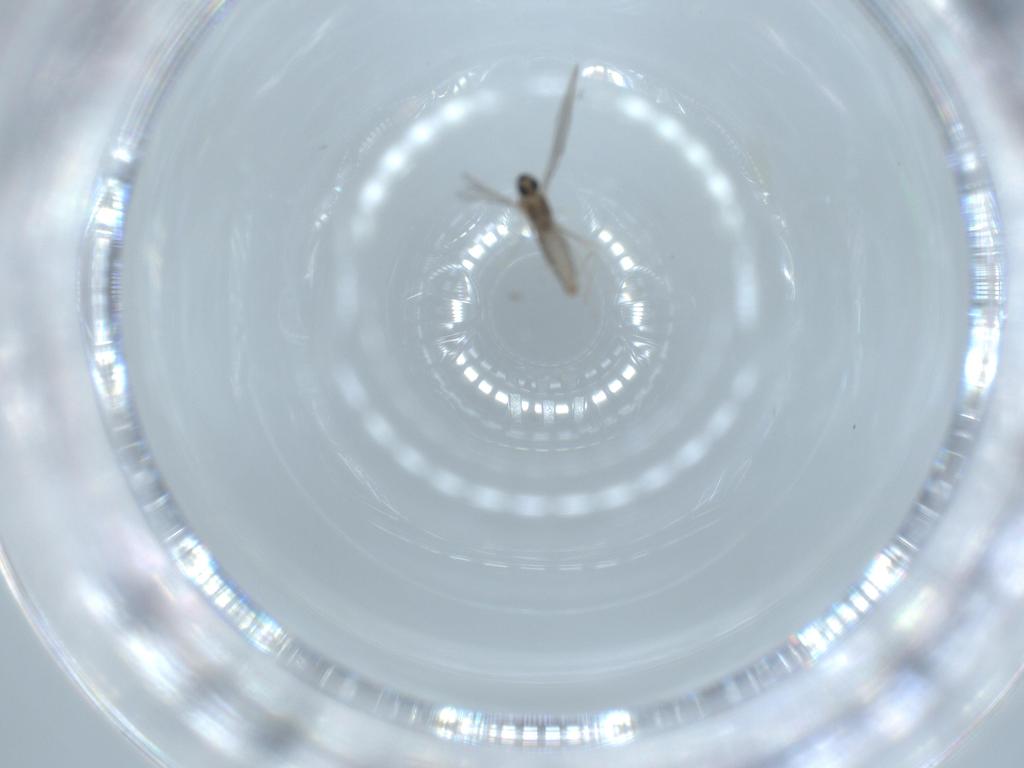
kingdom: Animalia
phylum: Arthropoda
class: Insecta
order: Diptera
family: Cecidomyiidae
